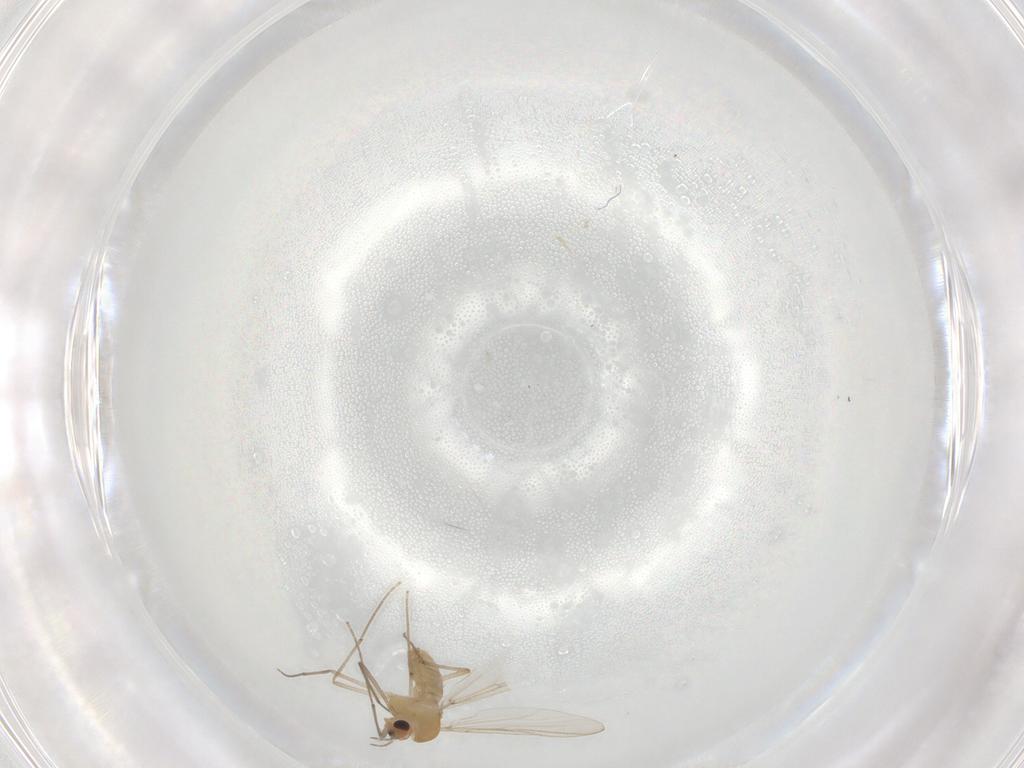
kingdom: Animalia
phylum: Arthropoda
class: Insecta
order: Diptera
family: Chironomidae
